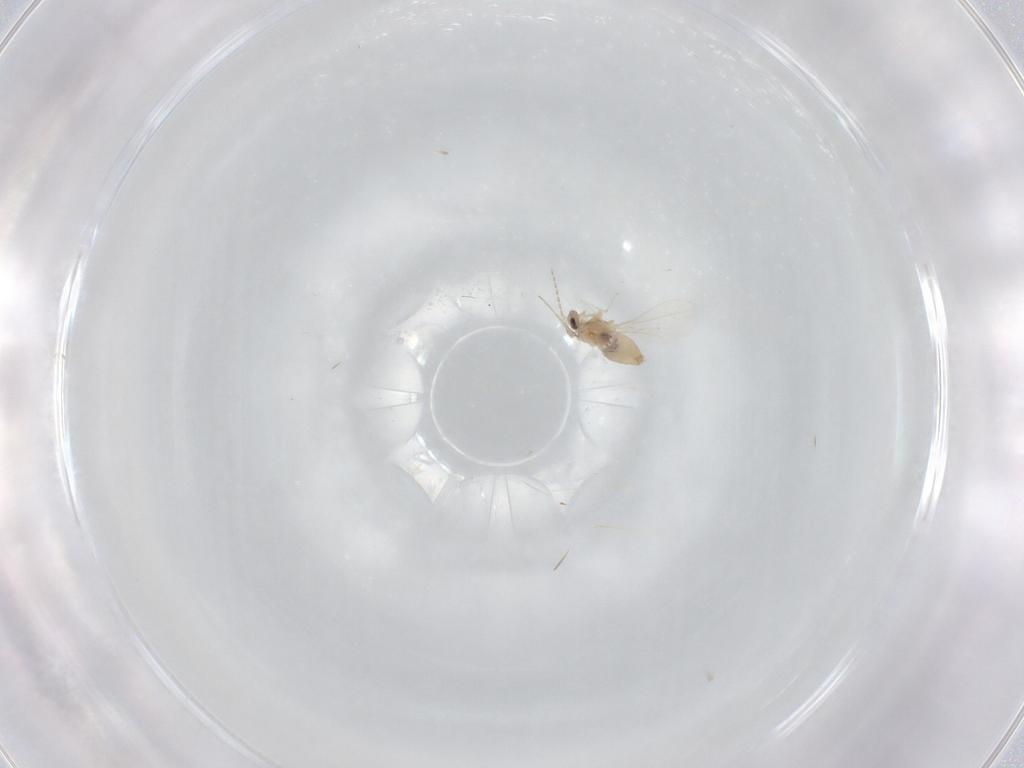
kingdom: Animalia
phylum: Arthropoda
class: Insecta
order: Diptera
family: Cecidomyiidae
